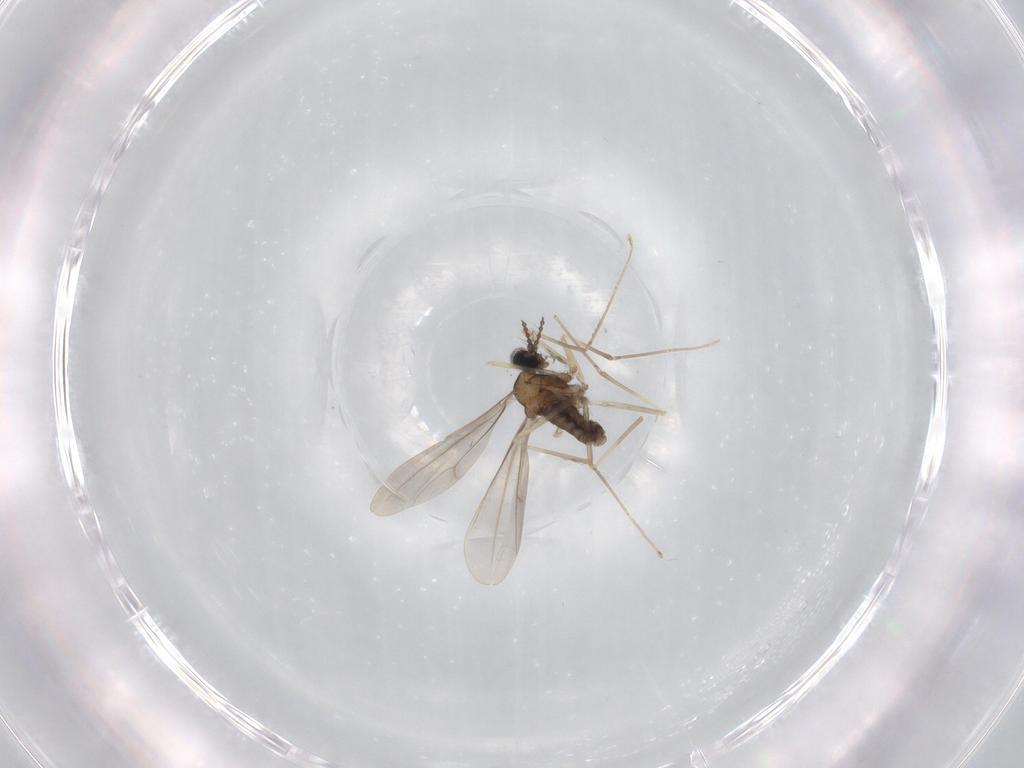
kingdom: Animalia
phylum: Arthropoda
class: Insecta
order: Diptera
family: Cecidomyiidae
